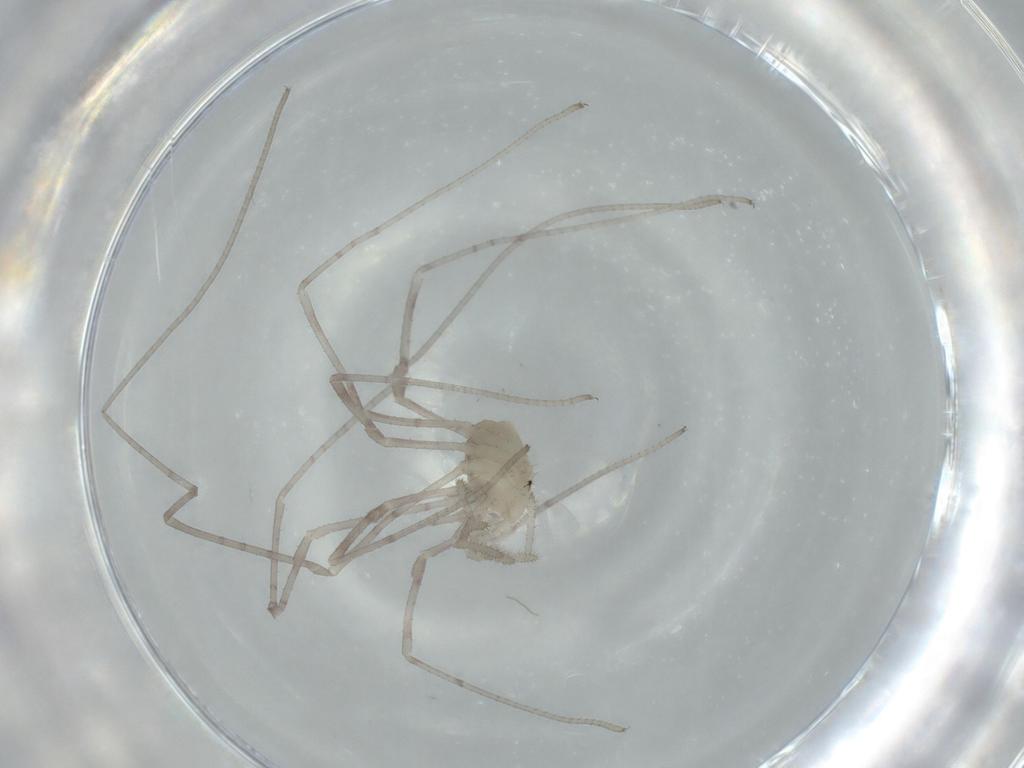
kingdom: Animalia
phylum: Arthropoda
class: Arachnida
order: Opiliones
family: Sclerosomatidae
